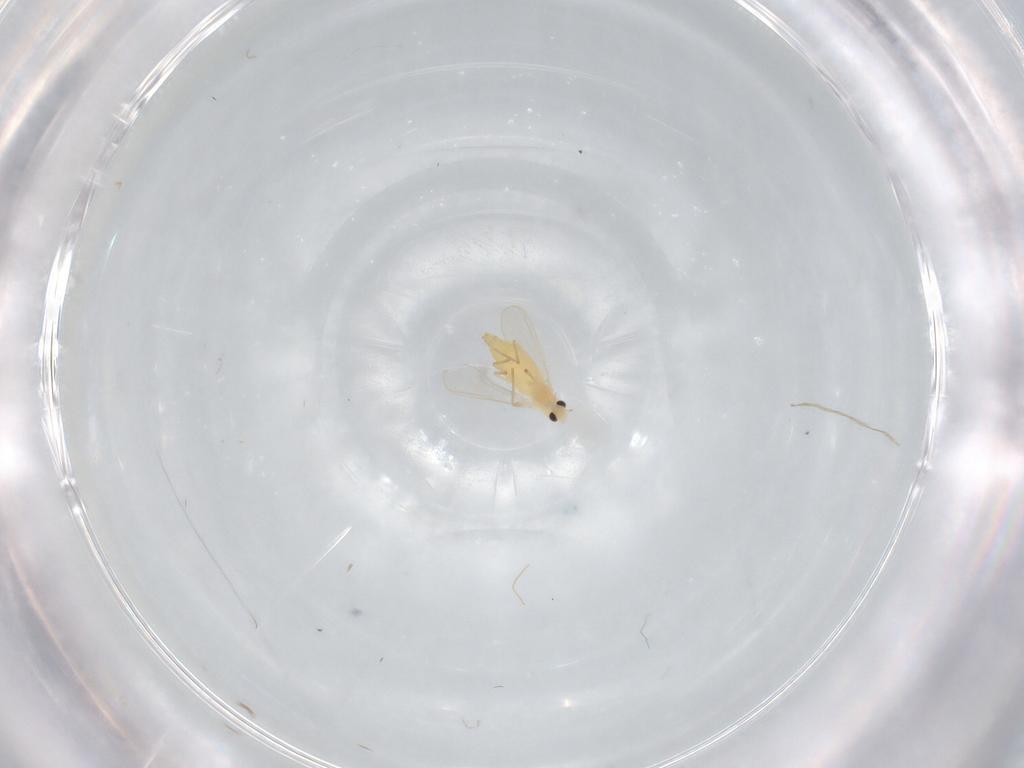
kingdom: Animalia
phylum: Arthropoda
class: Insecta
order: Diptera
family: Chironomidae
